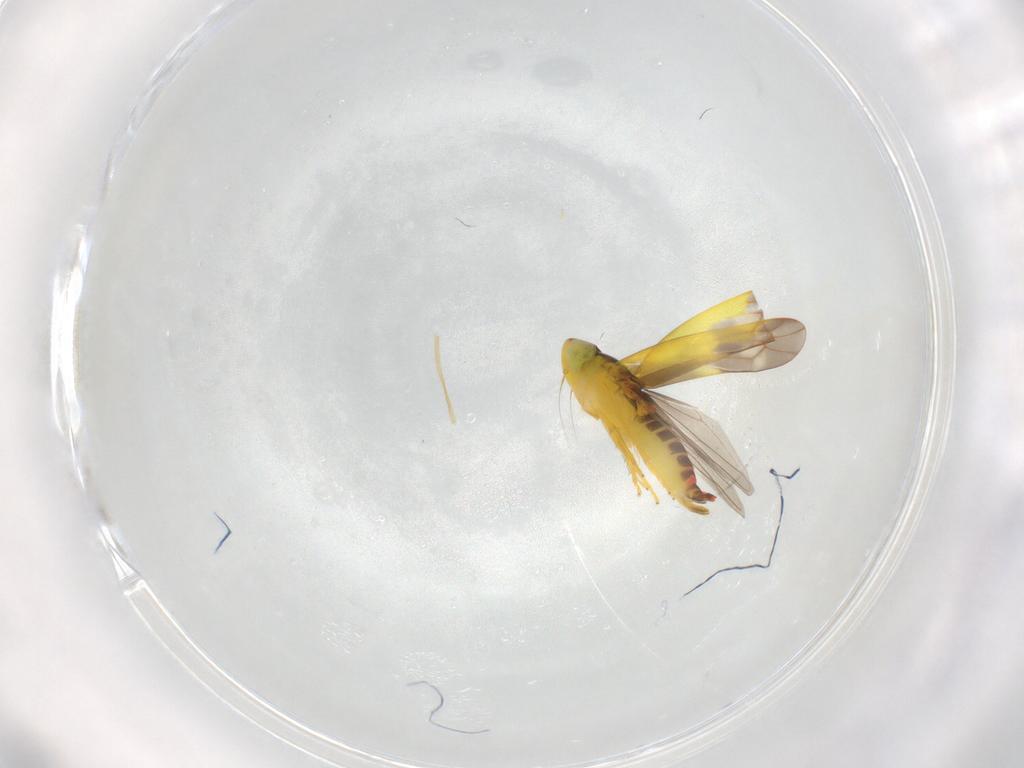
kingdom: Animalia
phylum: Arthropoda
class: Insecta
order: Hemiptera
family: Cicadellidae
